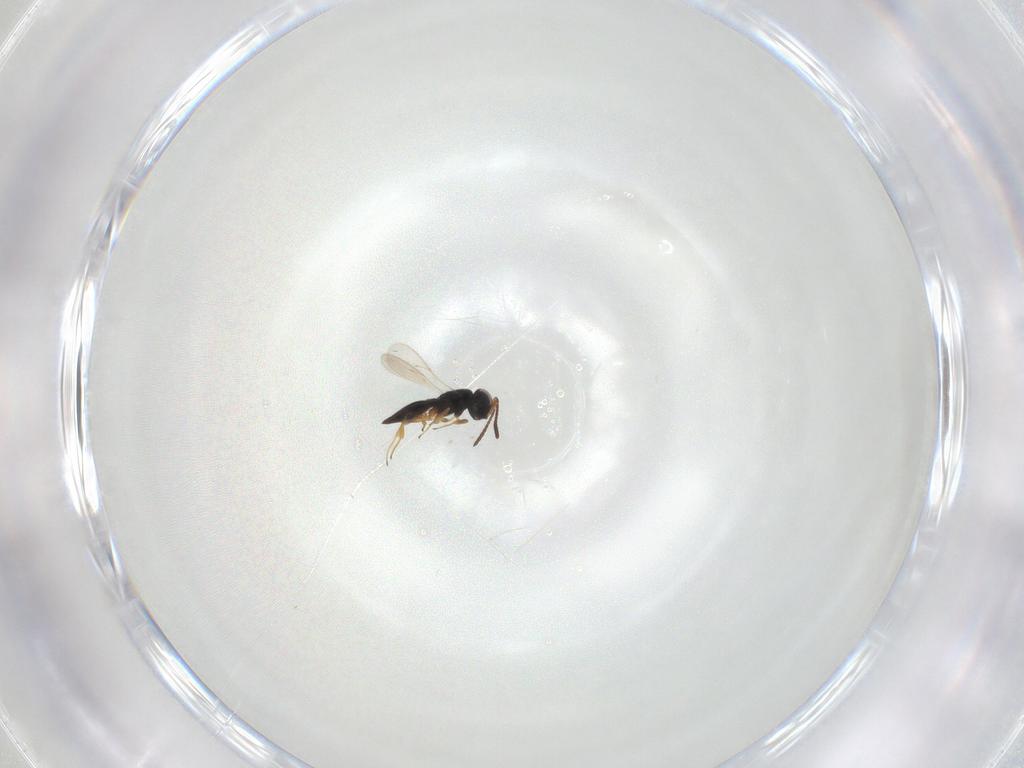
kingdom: Animalia
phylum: Arthropoda
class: Insecta
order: Hymenoptera
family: Scelionidae
